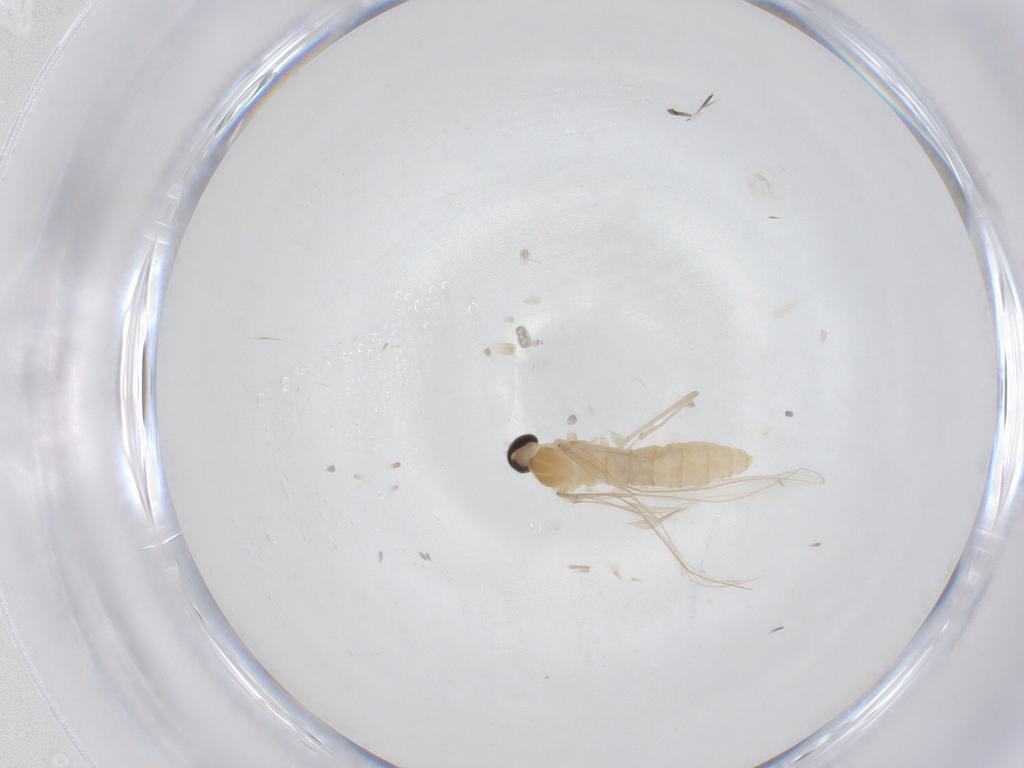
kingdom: Animalia
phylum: Arthropoda
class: Insecta
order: Diptera
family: Cecidomyiidae
